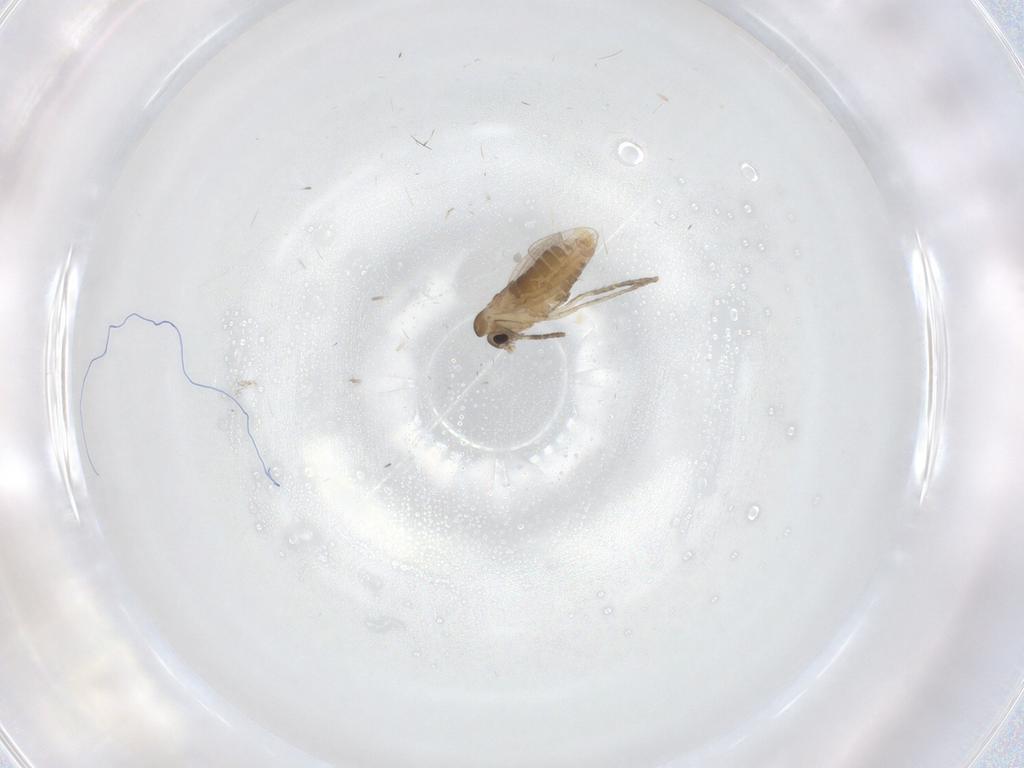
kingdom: Animalia
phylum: Arthropoda
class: Insecta
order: Diptera
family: Psychodidae
